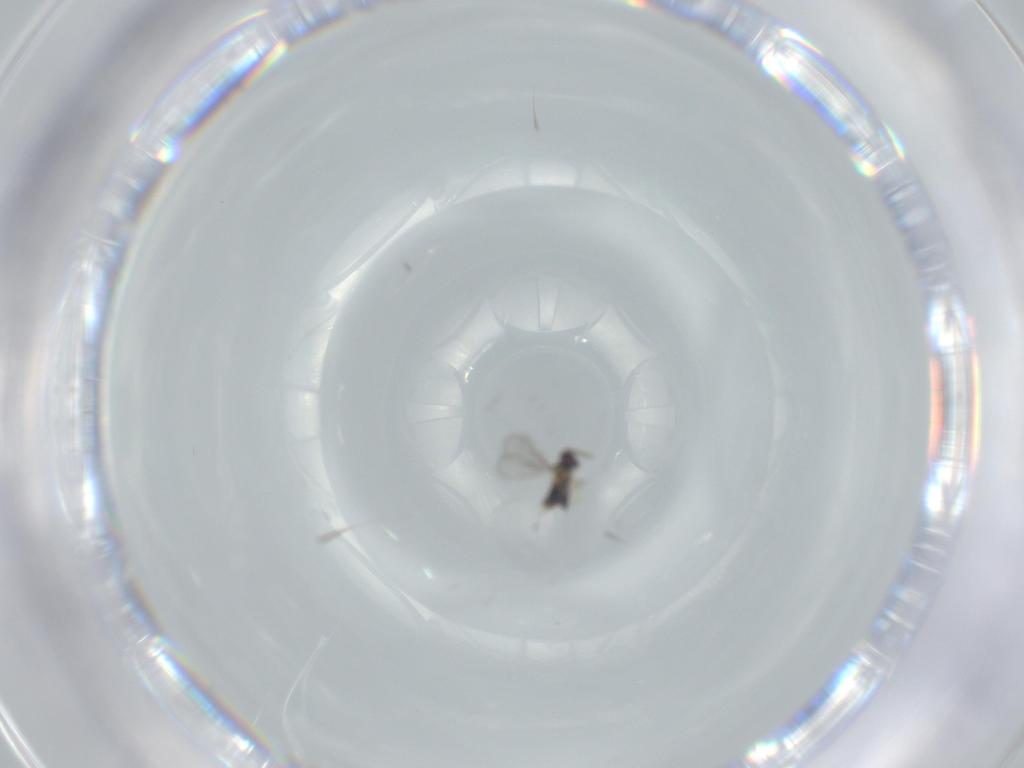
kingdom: Animalia
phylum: Arthropoda
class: Insecta
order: Hymenoptera
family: Aphelinidae
